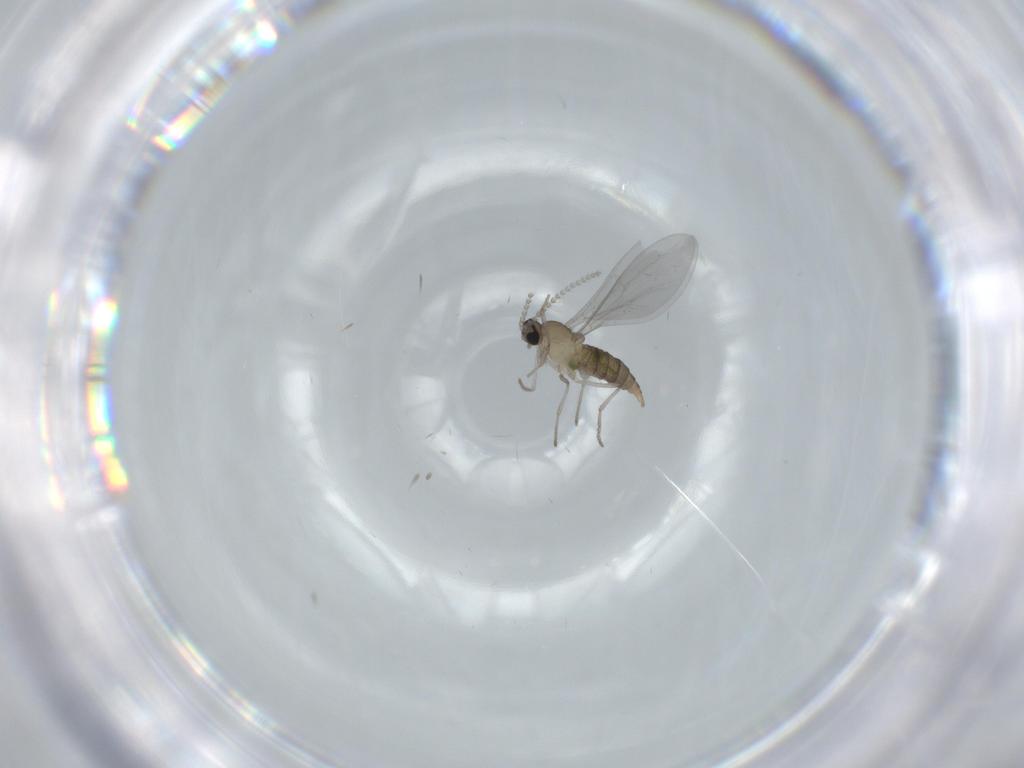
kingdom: Animalia
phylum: Arthropoda
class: Insecta
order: Diptera
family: Cecidomyiidae
